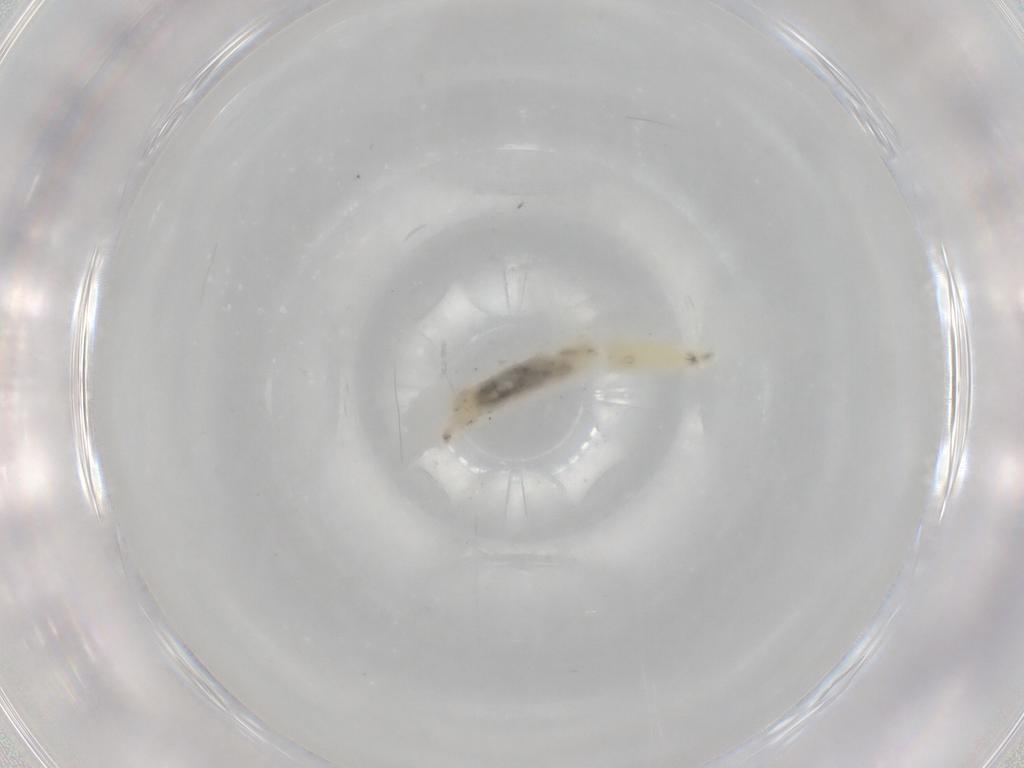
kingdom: Animalia
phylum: Arthropoda
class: Insecta
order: Diptera
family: Drosophilidae
